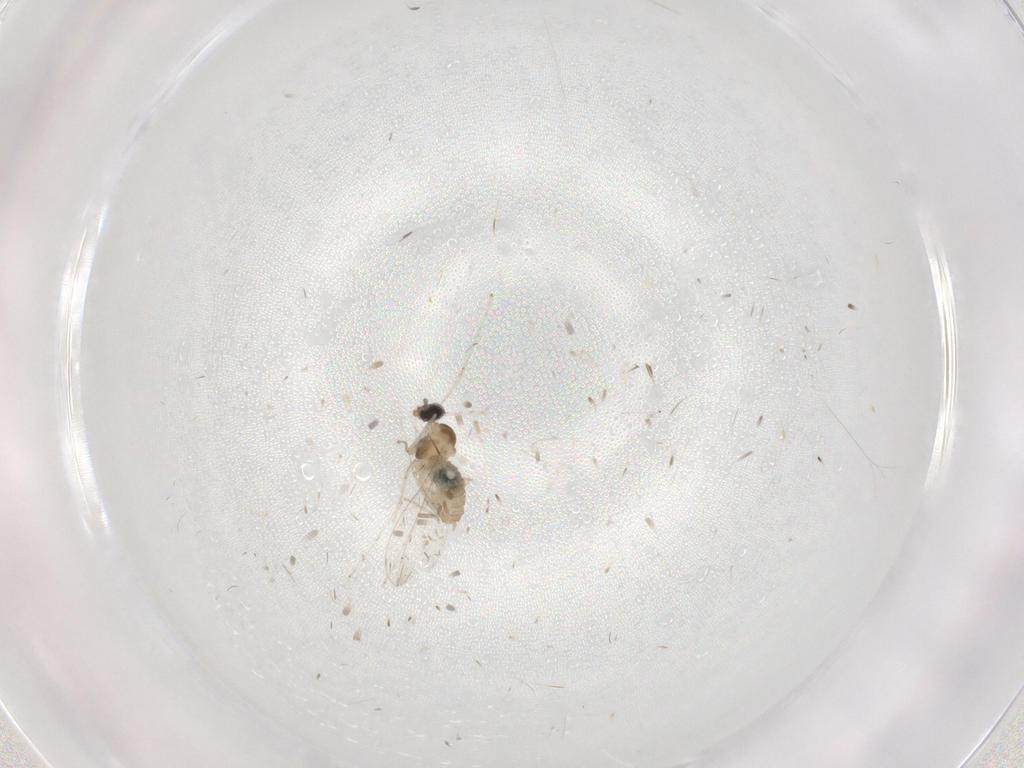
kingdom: Animalia
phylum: Arthropoda
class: Insecta
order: Diptera
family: Cecidomyiidae
